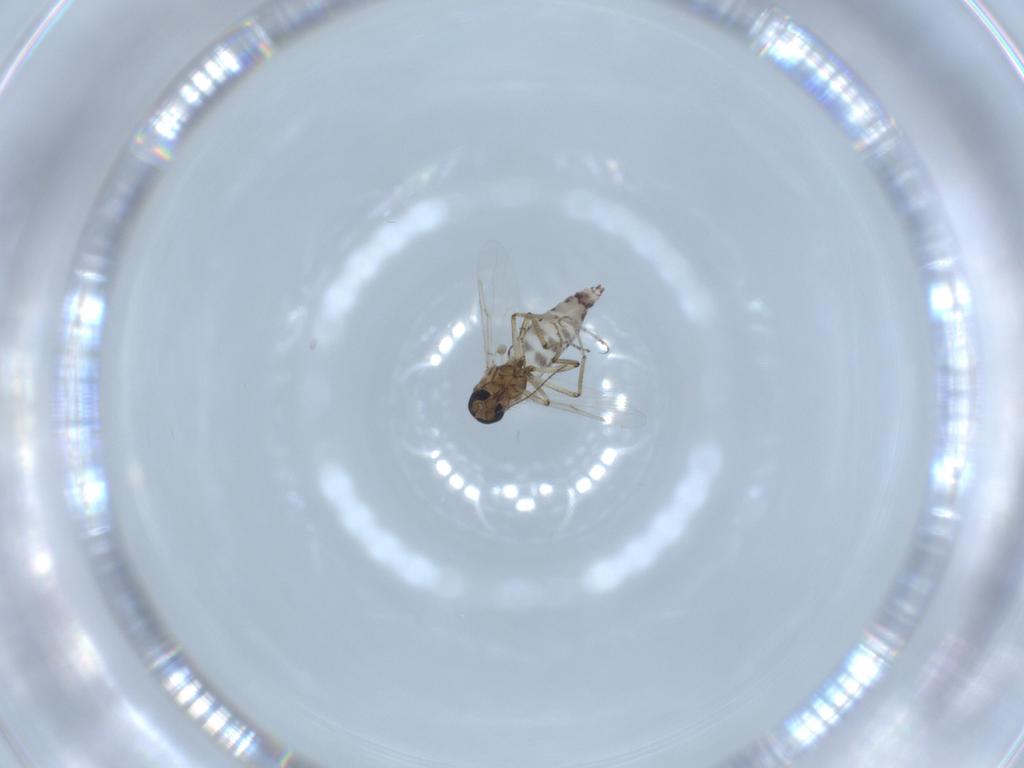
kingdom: Animalia
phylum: Arthropoda
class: Insecta
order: Diptera
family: Ceratopogonidae
